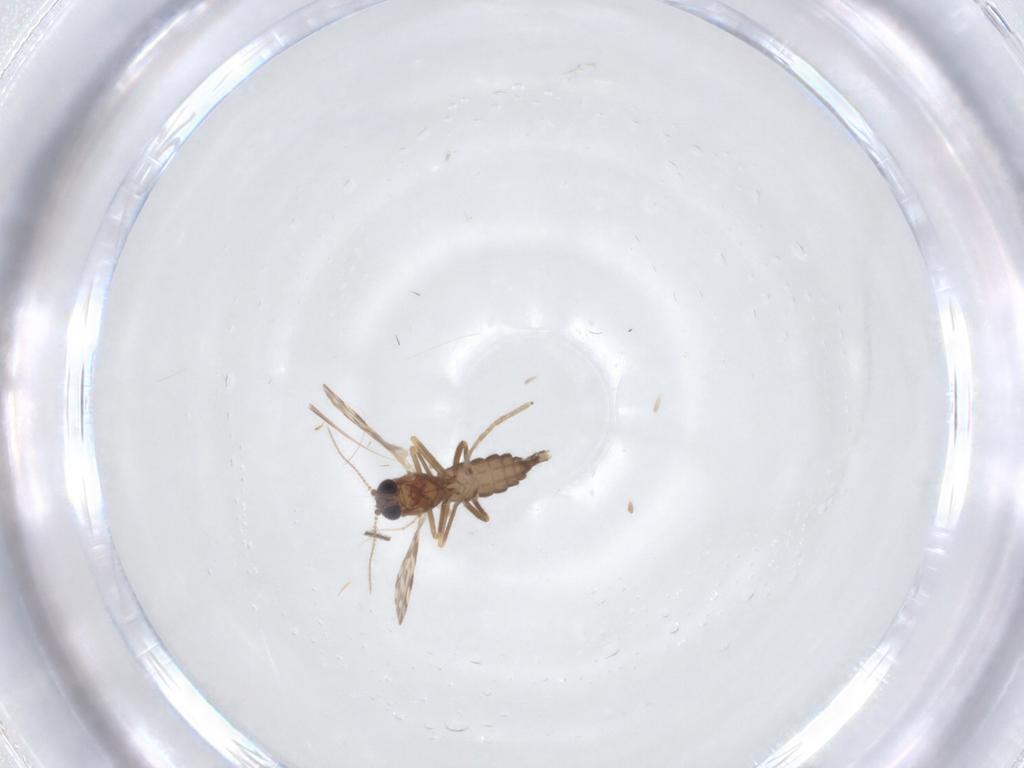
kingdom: Animalia
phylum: Arthropoda
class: Insecta
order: Diptera
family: Ceratopogonidae
